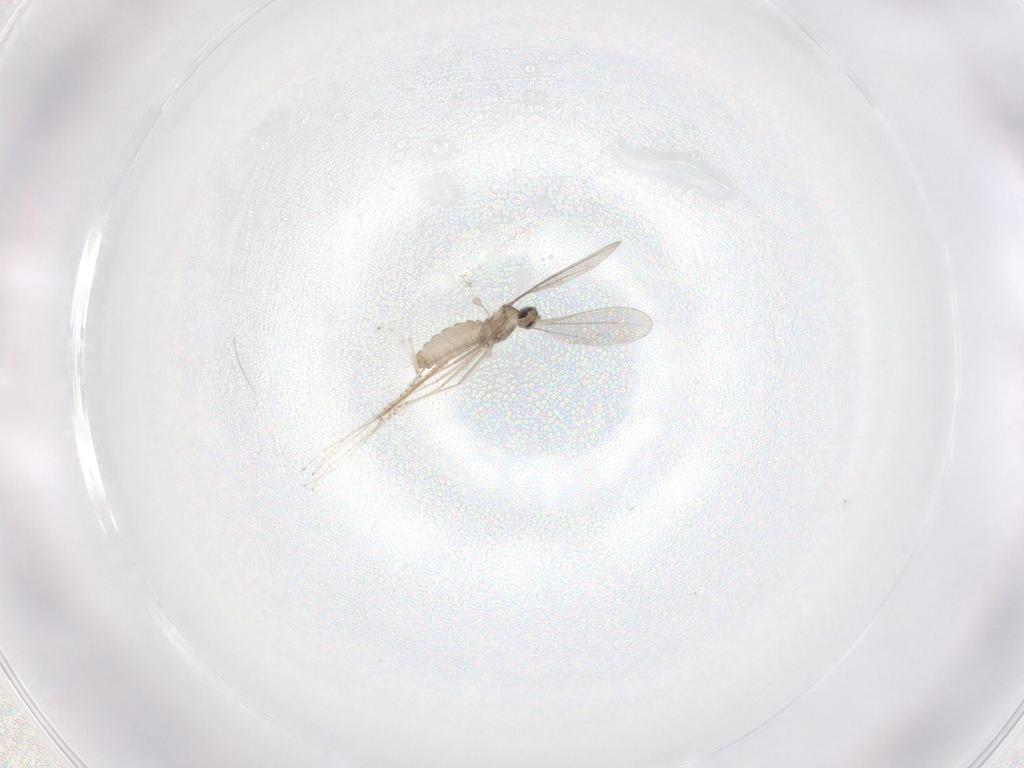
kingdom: Animalia
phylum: Arthropoda
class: Insecta
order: Diptera
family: Cecidomyiidae
